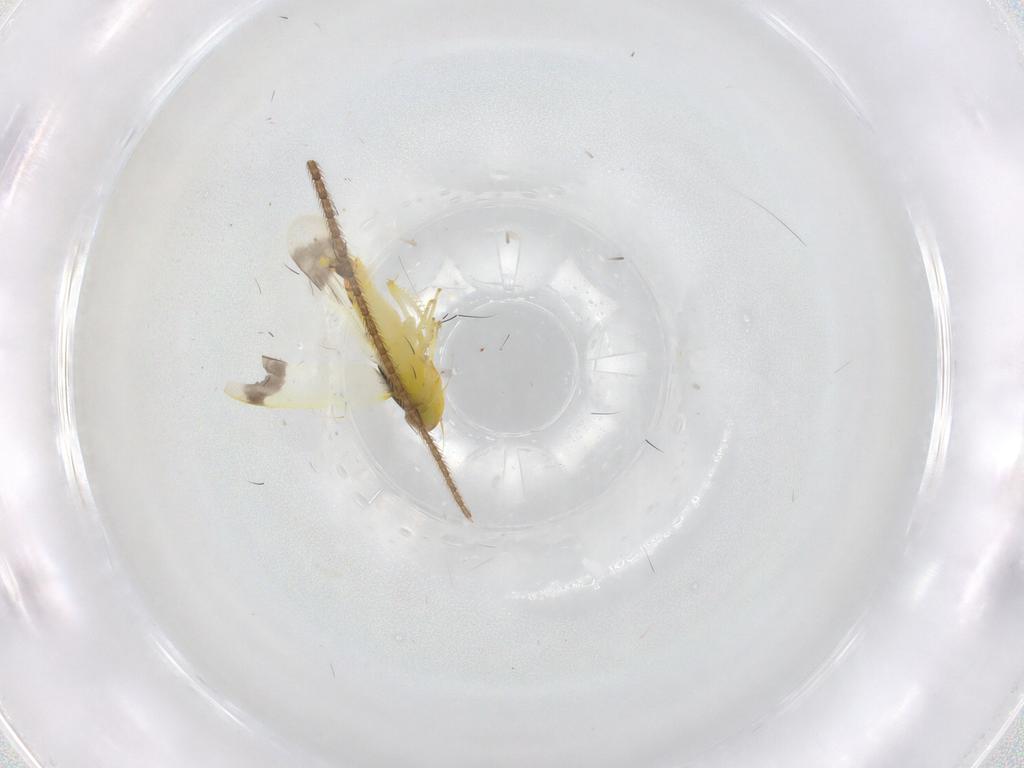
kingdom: Animalia
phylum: Arthropoda
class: Insecta
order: Hemiptera
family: Cicadellidae
